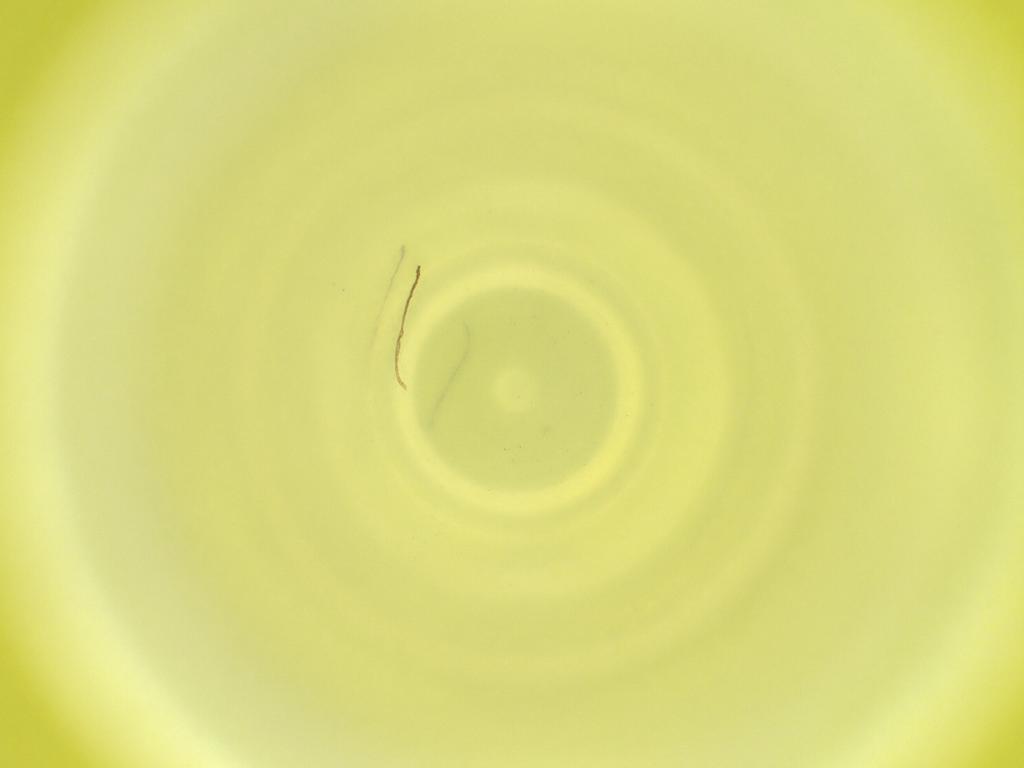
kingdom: Animalia
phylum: Arthropoda
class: Insecta
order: Diptera
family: Cecidomyiidae
